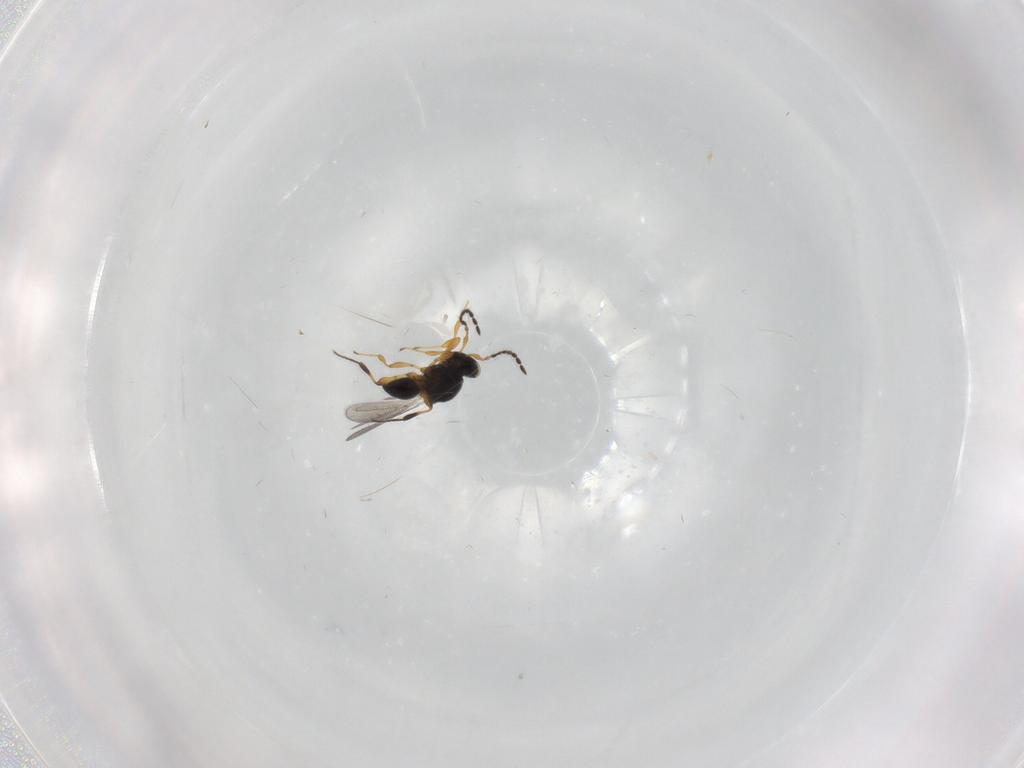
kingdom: Animalia
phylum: Arthropoda
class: Insecta
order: Hymenoptera
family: Platygastridae
